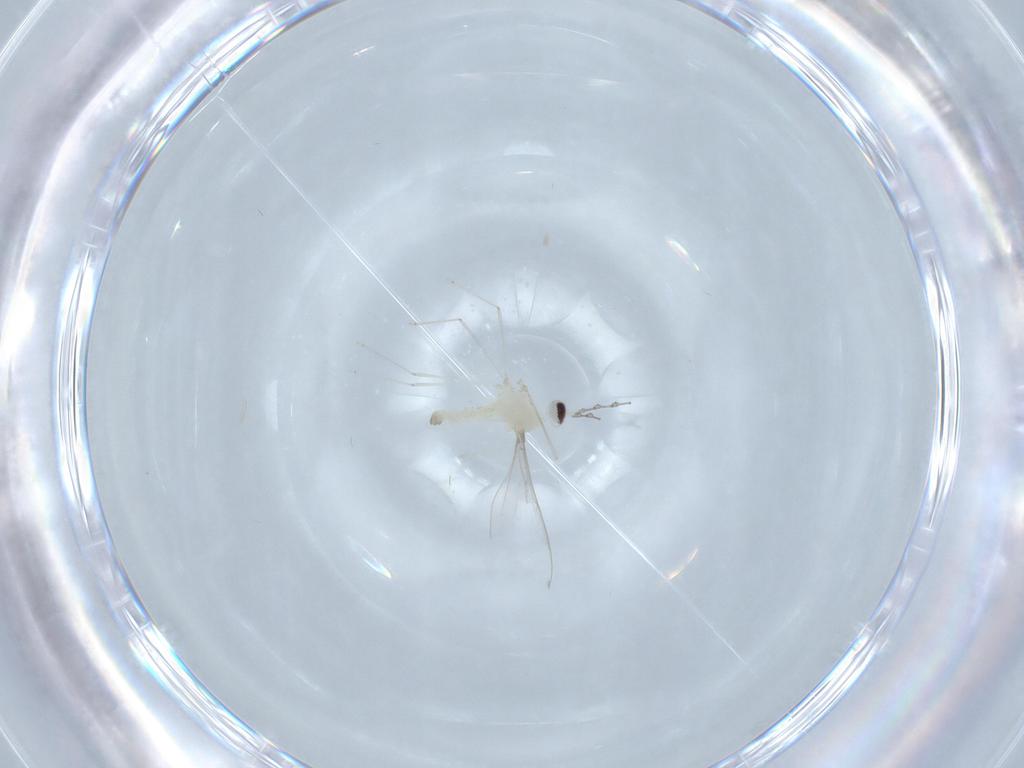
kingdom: Animalia
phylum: Arthropoda
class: Insecta
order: Diptera
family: Cecidomyiidae
